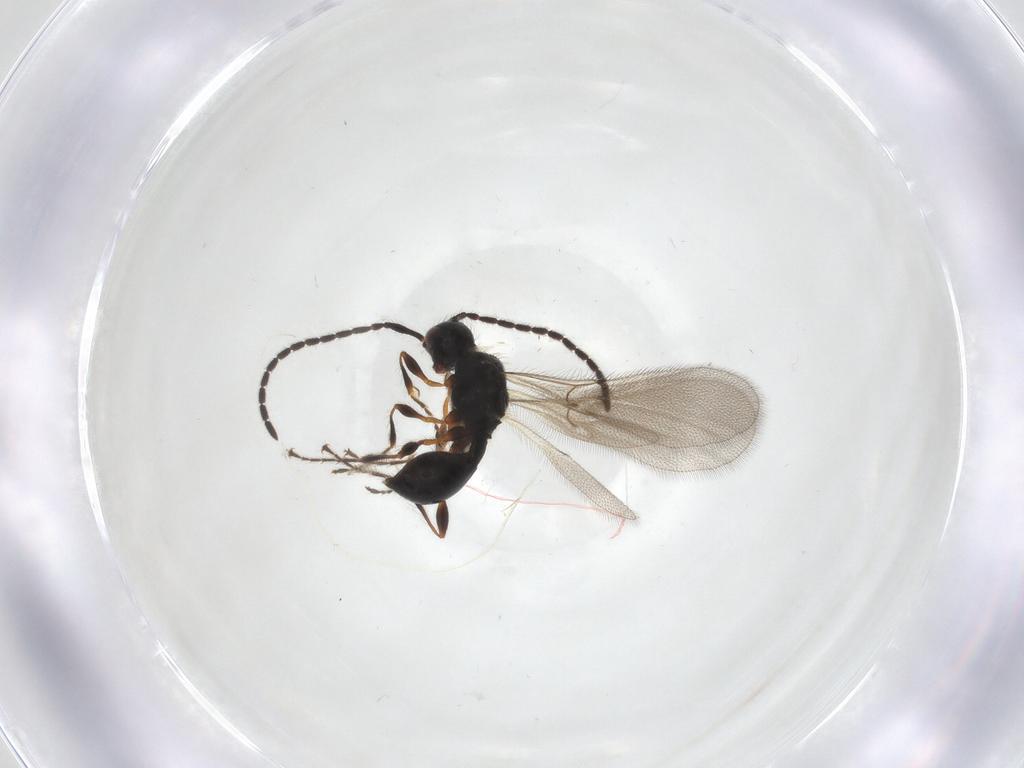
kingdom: Animalia
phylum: Arthropoda
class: Insecta
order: Hymenoptera
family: Diapriidae
